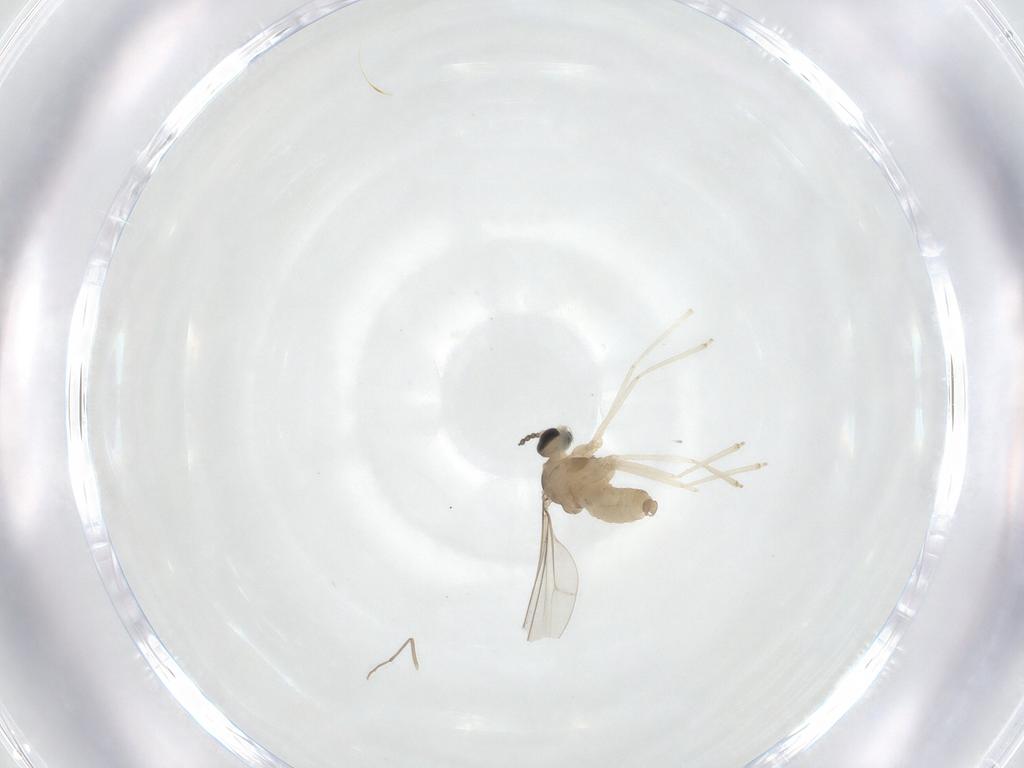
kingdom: Animalia
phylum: Arthropoda
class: Insecta
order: Diptera
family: Cecidomyiidae
